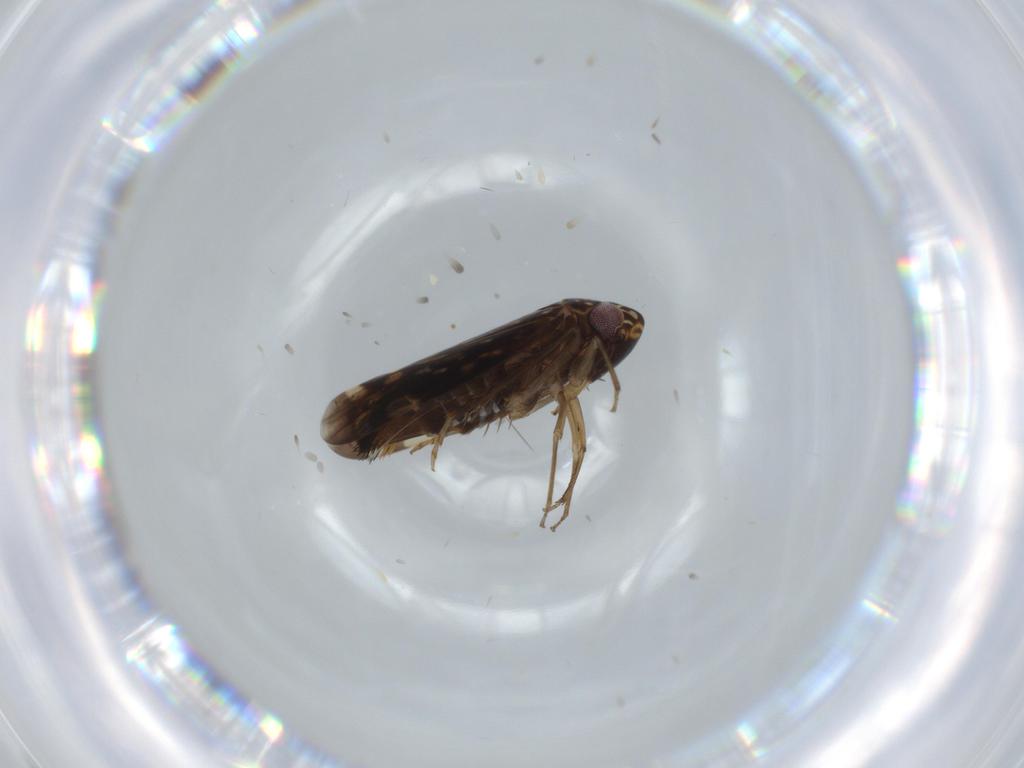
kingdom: Animalia
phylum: Arthropoda
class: Insecta
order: Hemiptera
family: Cicadellidae
